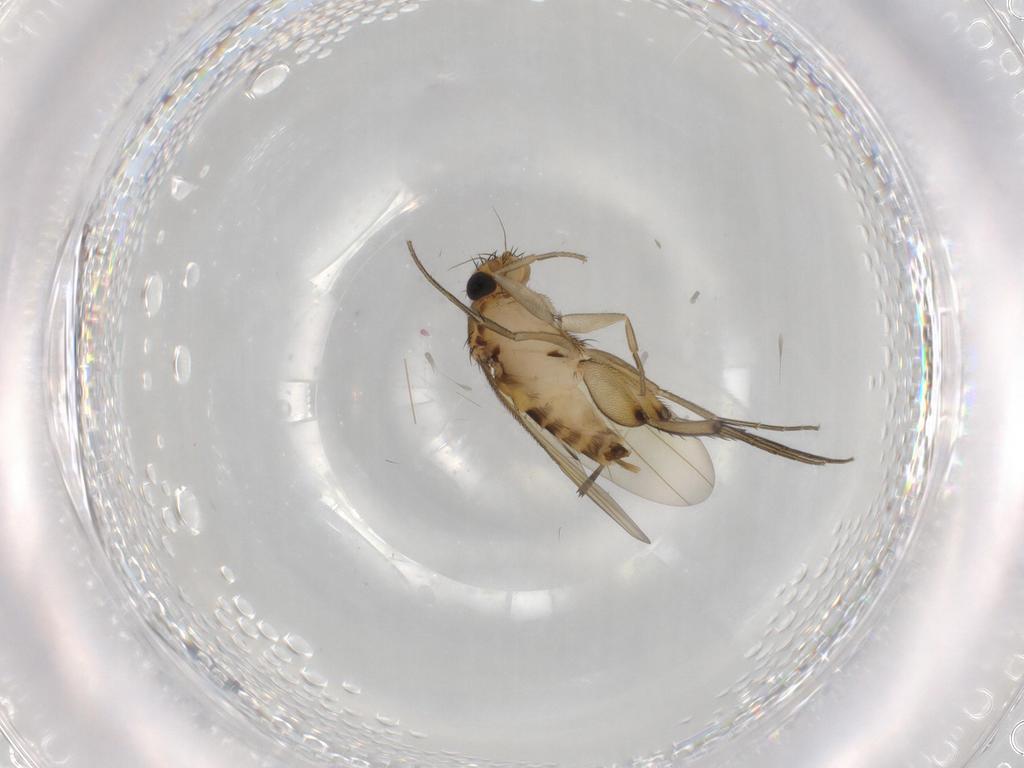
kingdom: Animalia
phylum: Arthropoda
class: Insecta
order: Diptera
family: Phoridae
